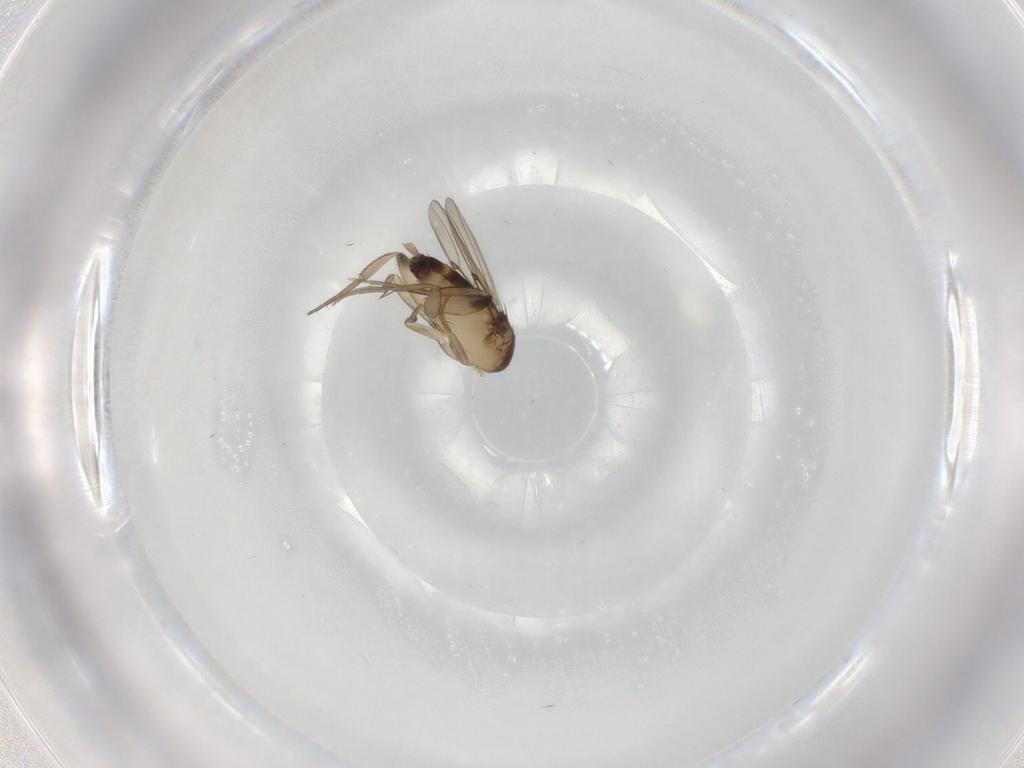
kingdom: Animalia
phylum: Arthropoda
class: Insecta
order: Diptera
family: Phoridae
